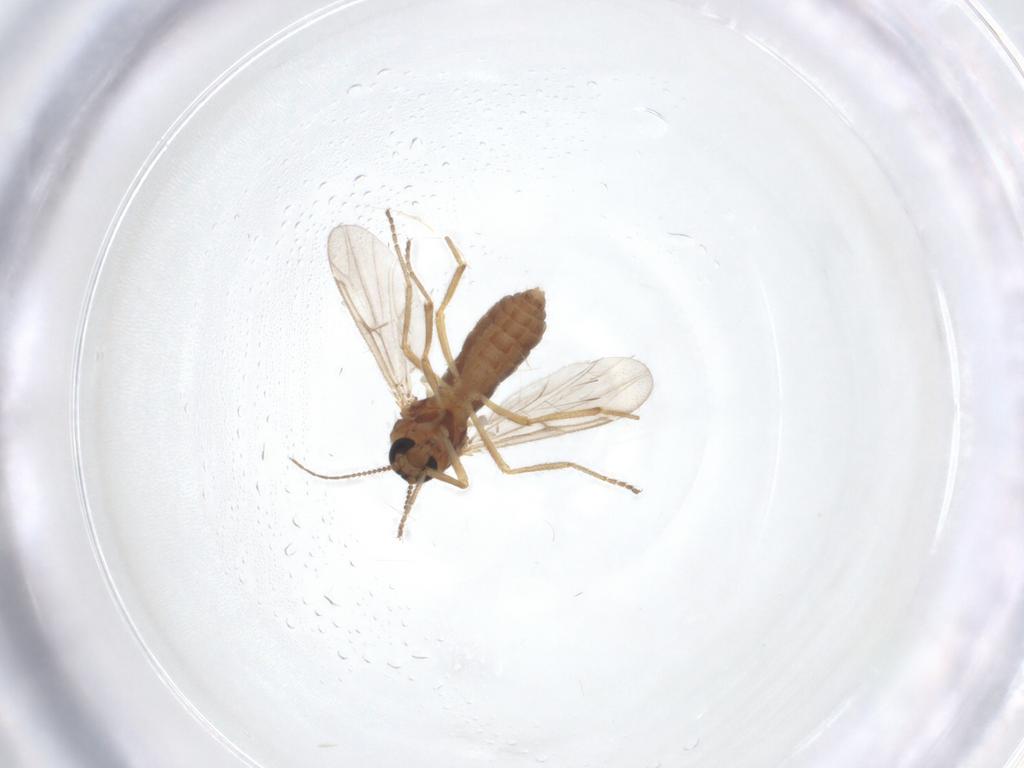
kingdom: Animalia
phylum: Arthropoda
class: Insecta
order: Diptera
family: Ceratopogonidae
